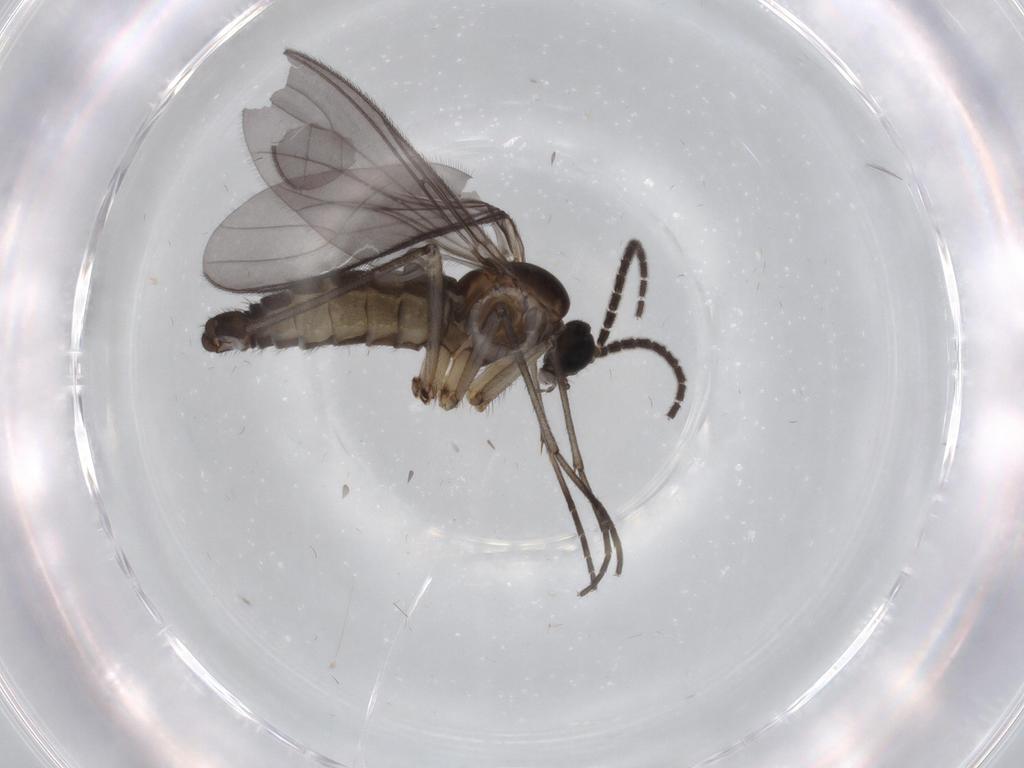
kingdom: Animalia
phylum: Arthropoda
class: Insecta
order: Diptera
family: Sciaridae
